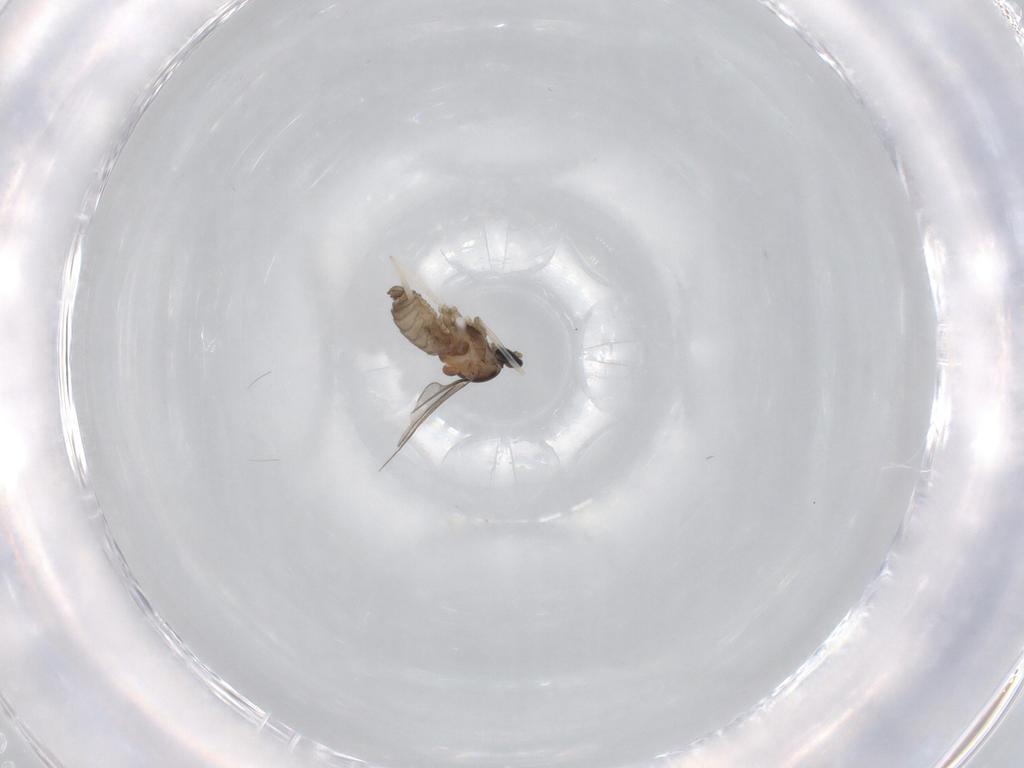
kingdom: Animalia
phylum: Arthropoda
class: Insecta
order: Diptera
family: Cecidomyiidae
